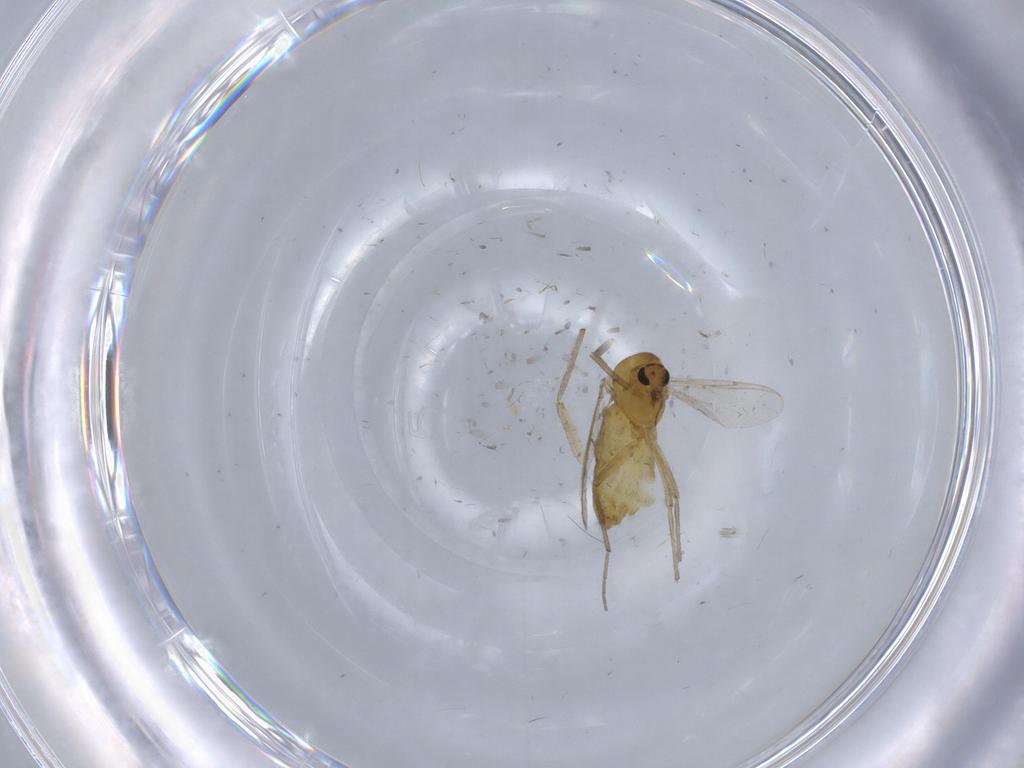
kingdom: Animalia
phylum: Arthropoda
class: Insecta
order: Diptera
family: Chironomidae
